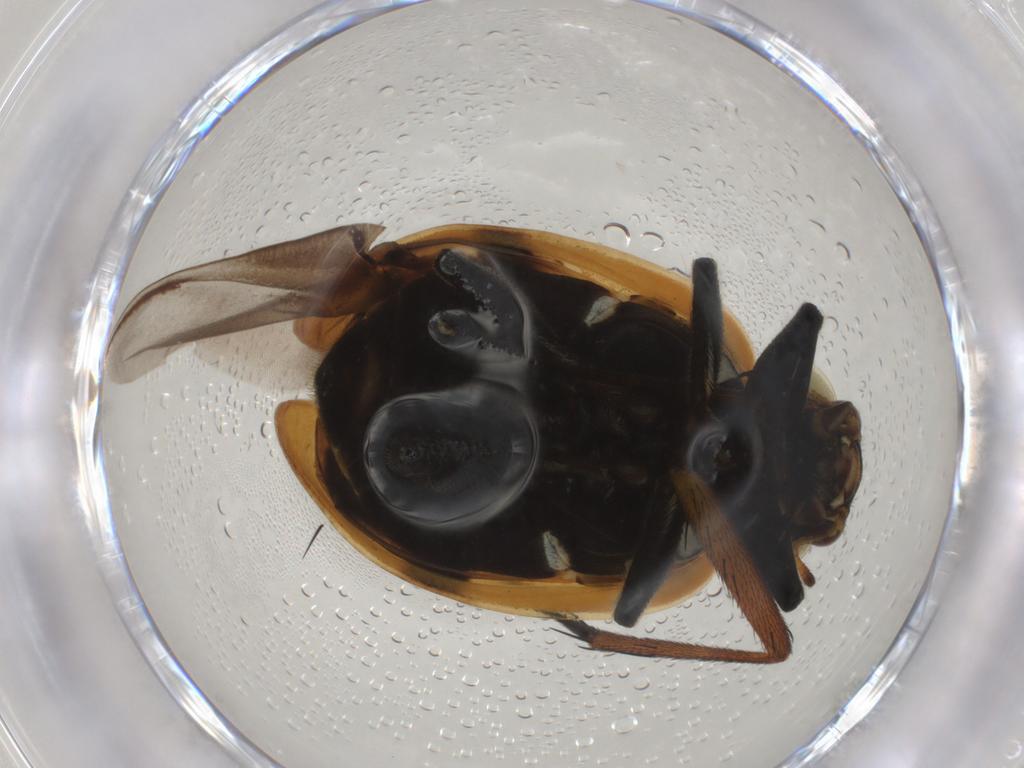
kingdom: Animalia
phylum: Arthropoda
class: Insecta
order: Coleoptera
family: Coccinellidae
